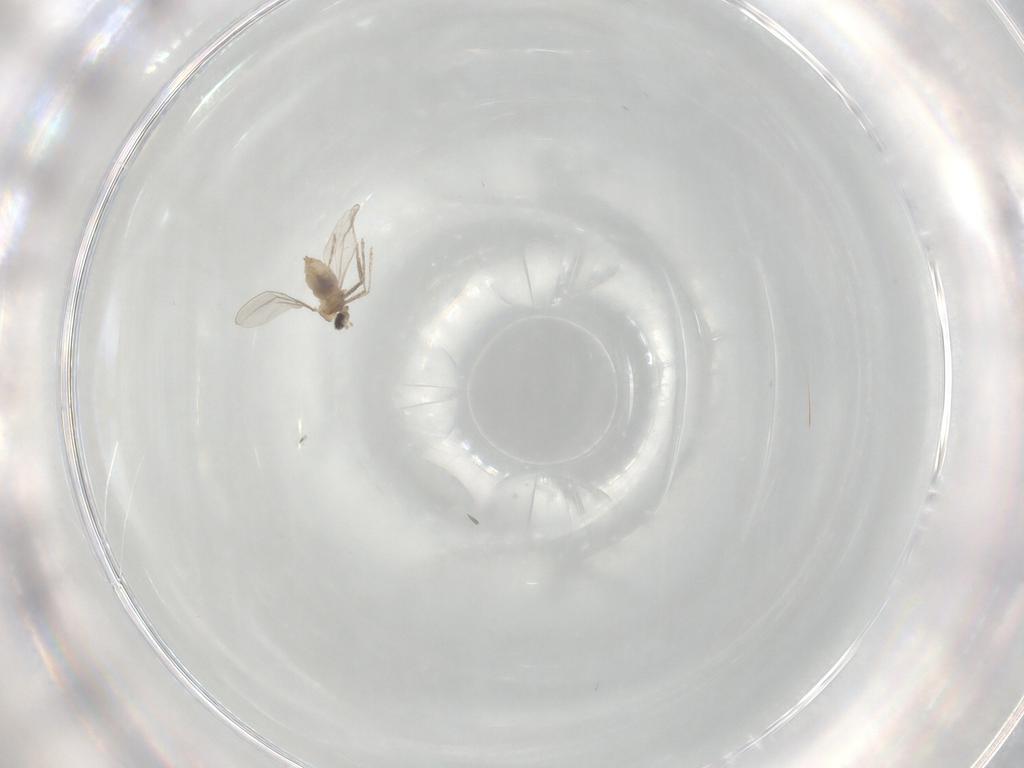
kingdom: Animalia
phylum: Arthropoda
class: Insecta
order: Diptera
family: Cecidomyiidae
